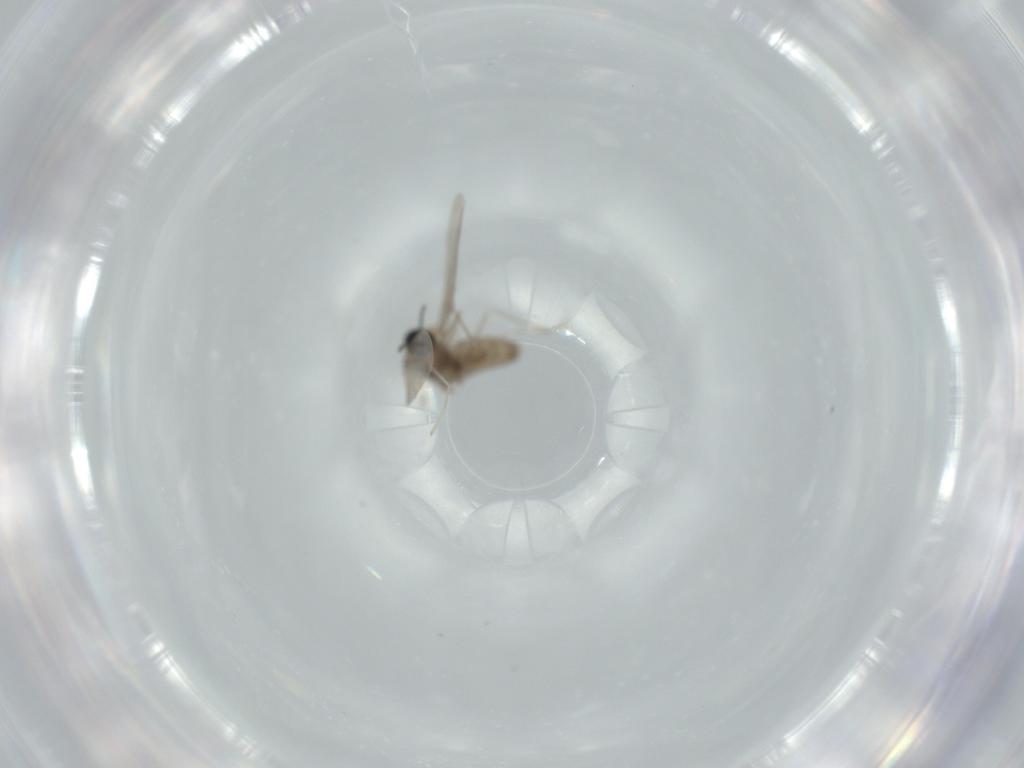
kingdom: Animalia
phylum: Arthropoda
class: Insecta
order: Diptera
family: Cecidomyiidae
